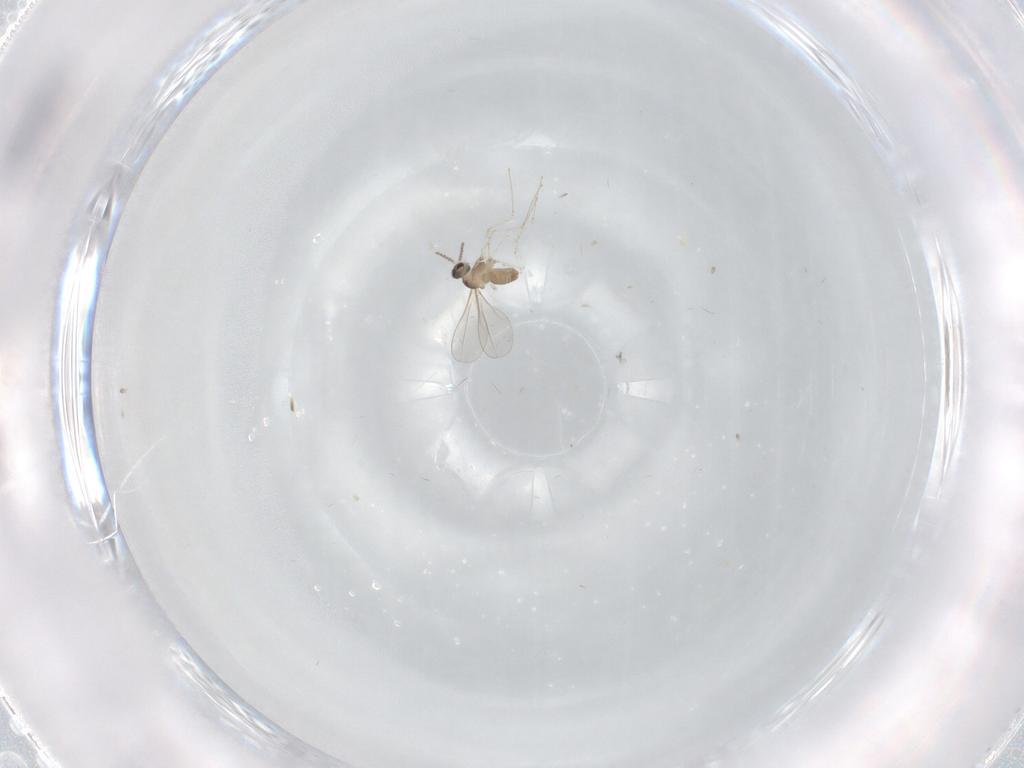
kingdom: Animalia
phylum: Arthropoda
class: Insecta
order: Diptera
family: Cecidomyiidae
